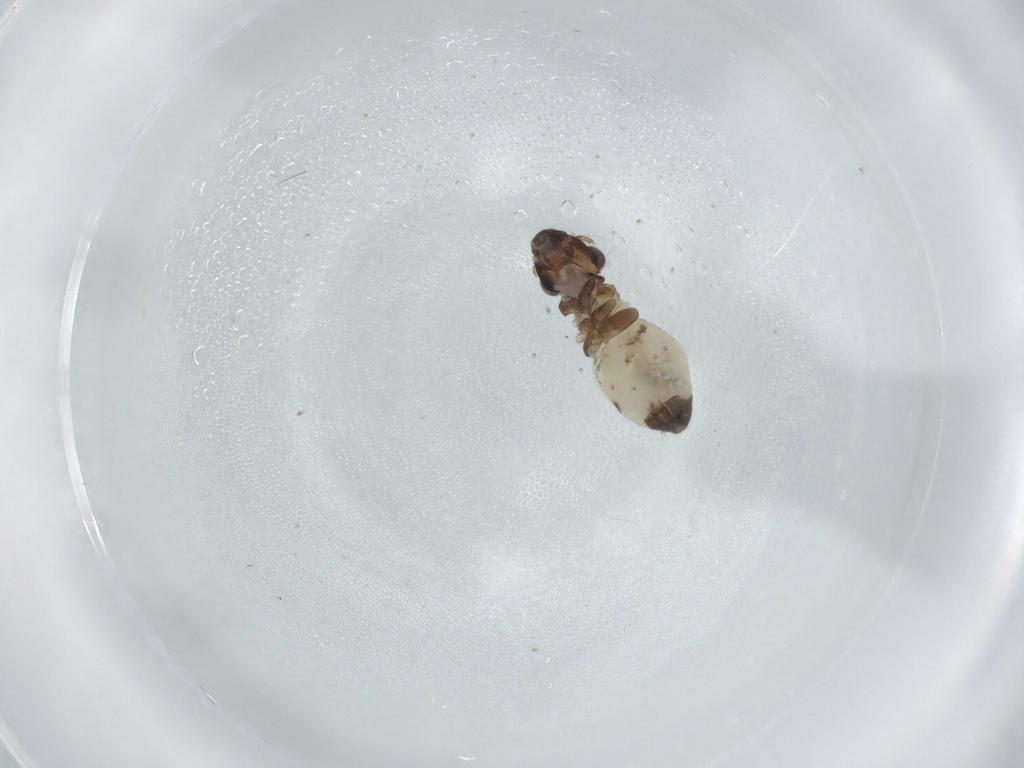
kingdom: Animalia
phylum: Arthropoda
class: Insecta
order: Psocodea
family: Lepidopsocidae
